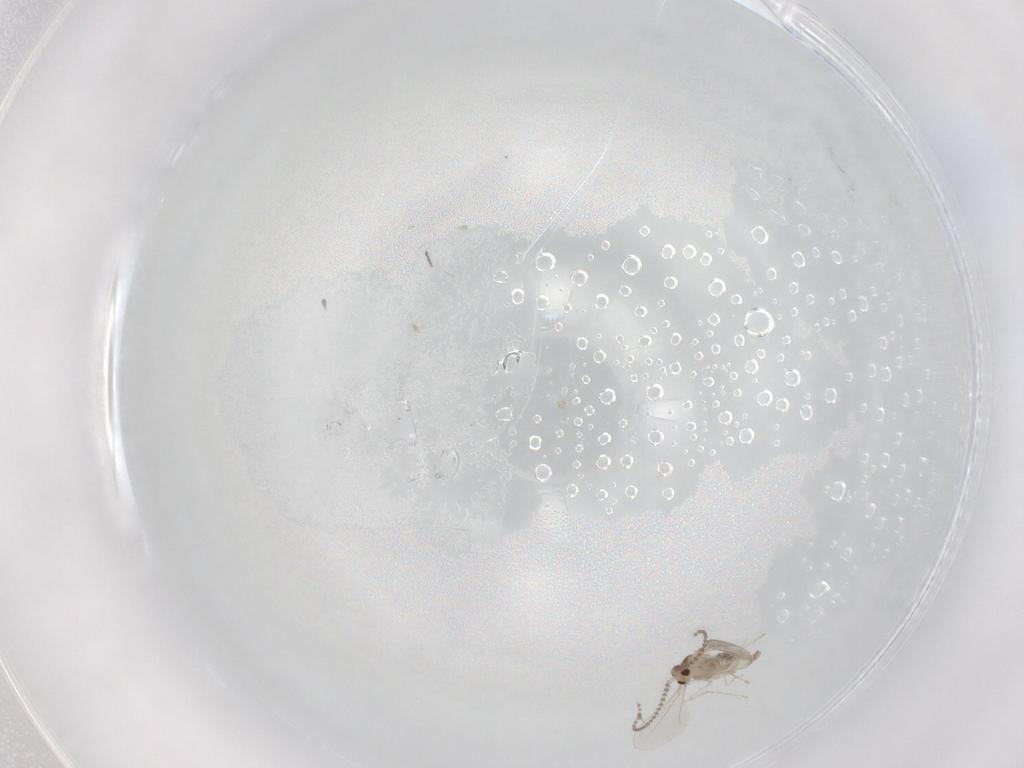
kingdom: Animalia
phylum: Arthropoda
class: Insecta
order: Diptera
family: Cecidomyiidae
